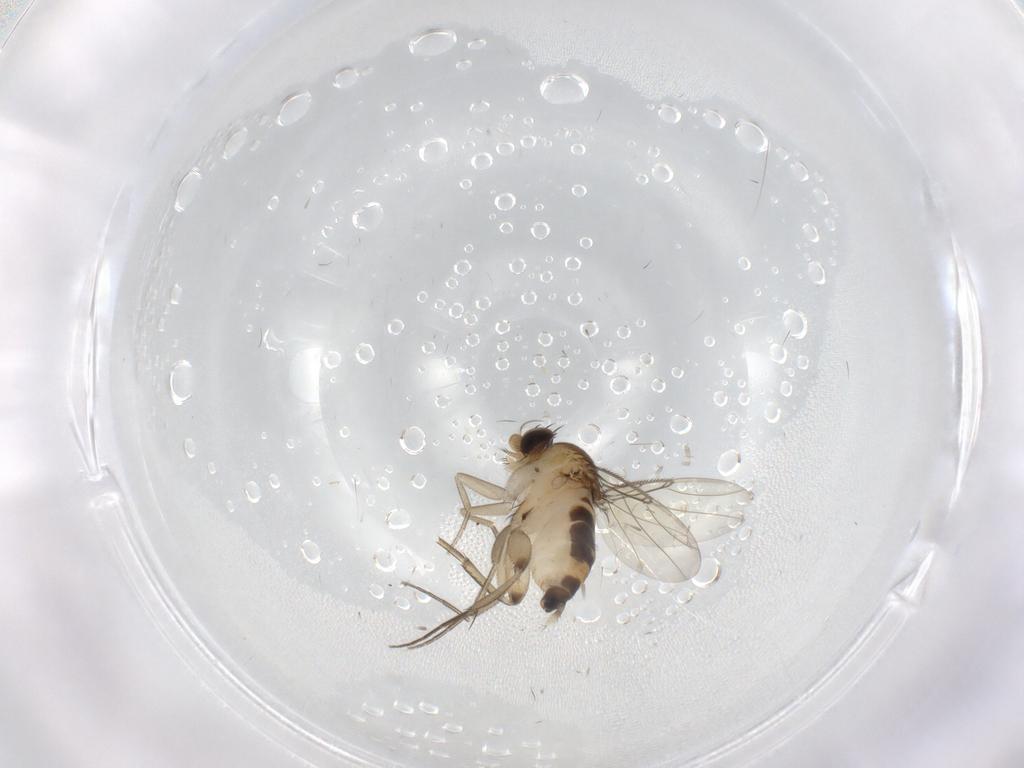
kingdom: Animalia
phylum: Arthropoda
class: Insecta
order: Diptera
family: Phoridae
